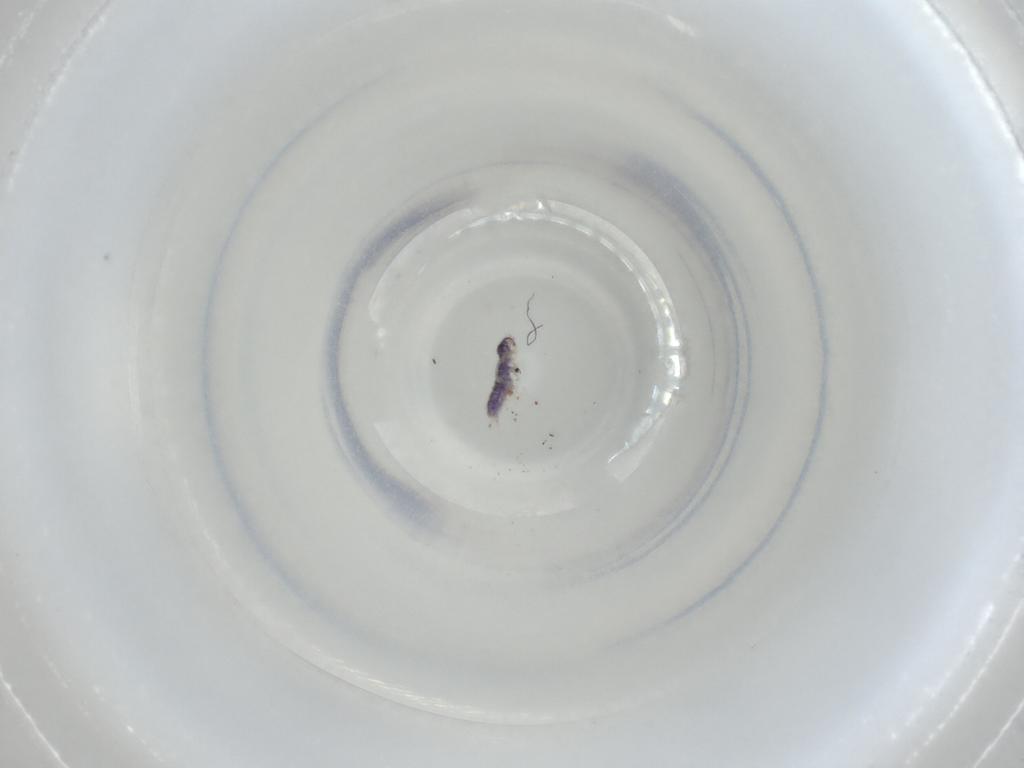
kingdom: Animalia
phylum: Arthropoda
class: Collembola
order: Entomobryomorpha
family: Isotomidae
